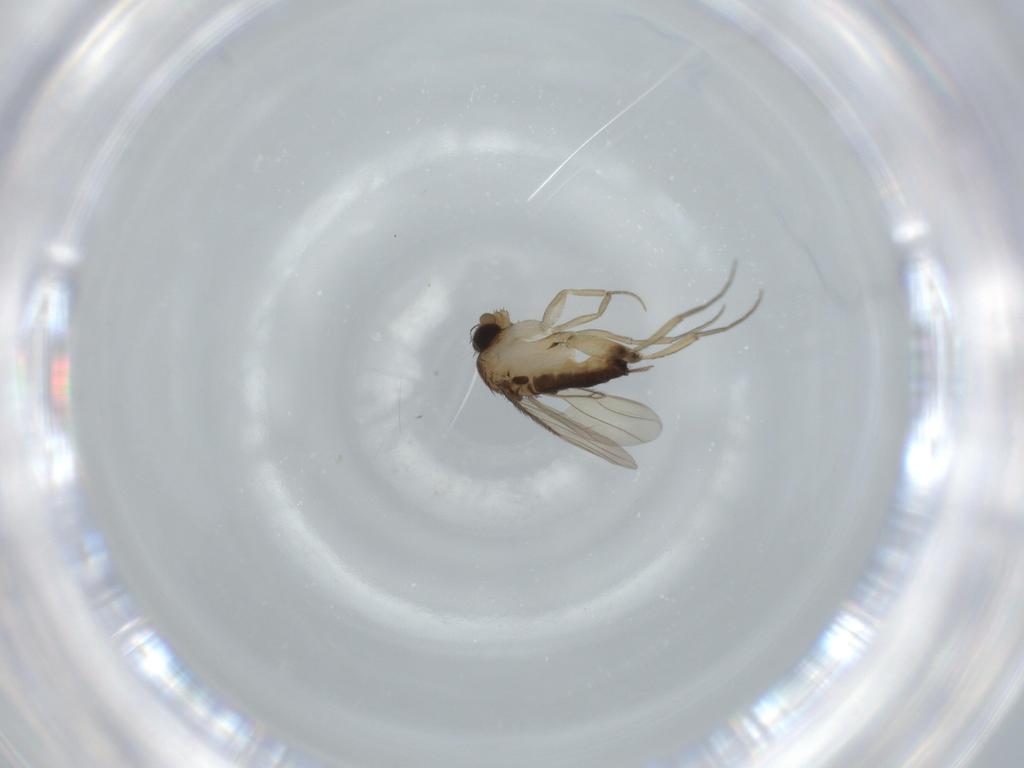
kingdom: Animalia
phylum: Arthropoda
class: Insecta
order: Diptera
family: Phoridae
